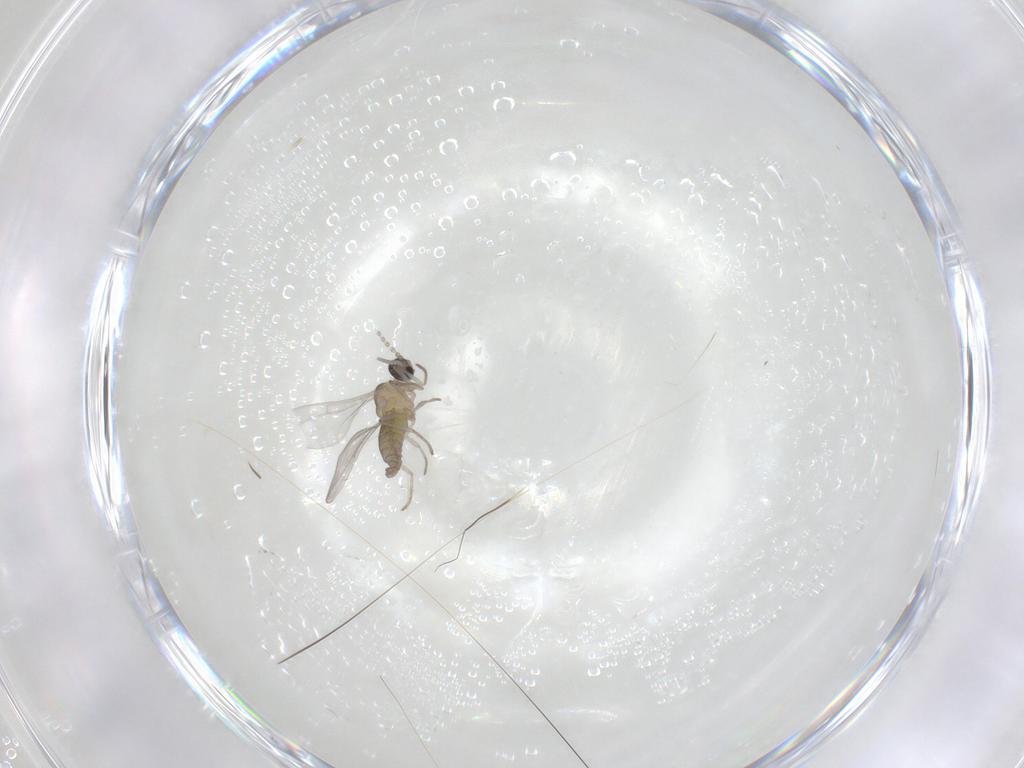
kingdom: Animalia
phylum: Arthropoda
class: Insecta
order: Diptera
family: Cecidomyiidae
